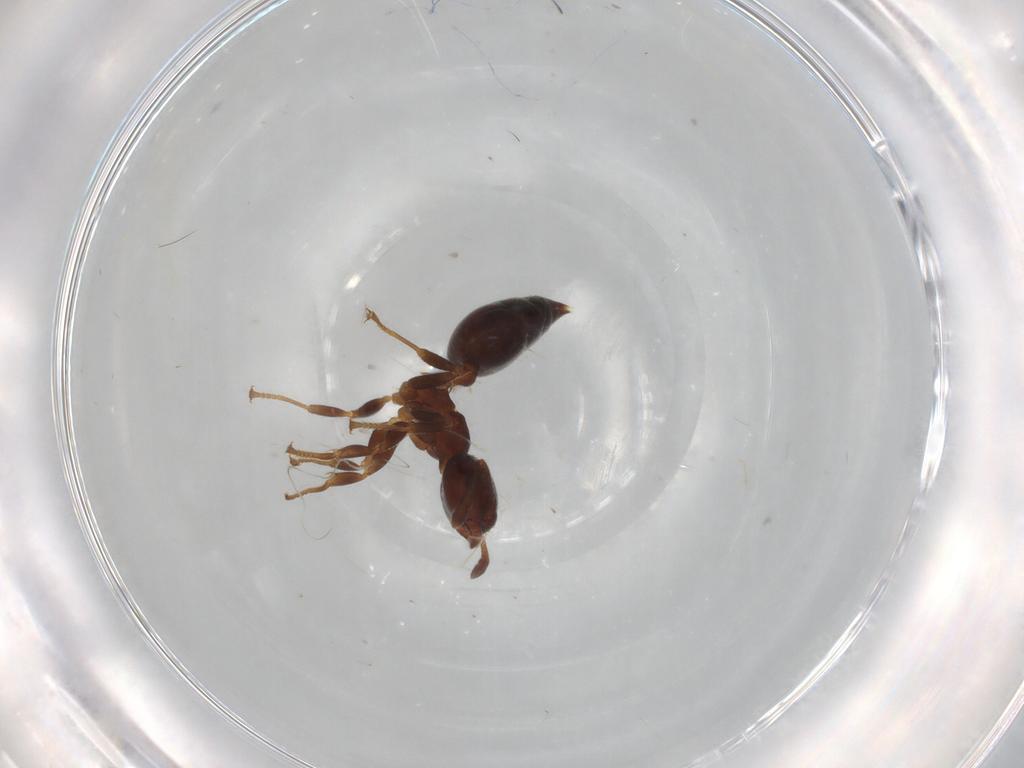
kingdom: Animalia
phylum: Arthropoda
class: Insecta
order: Hymenoptera
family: Formicidae
